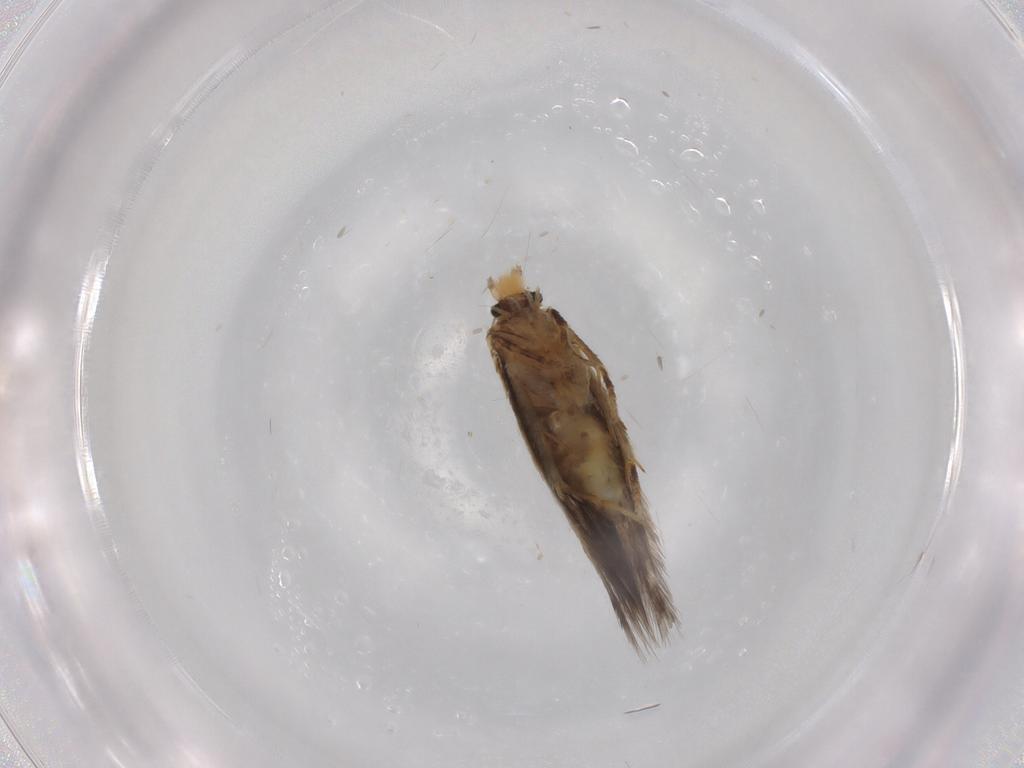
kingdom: Animalia
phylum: Arthropoda
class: Insecta
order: Lepidoptera
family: Nepticulidae
